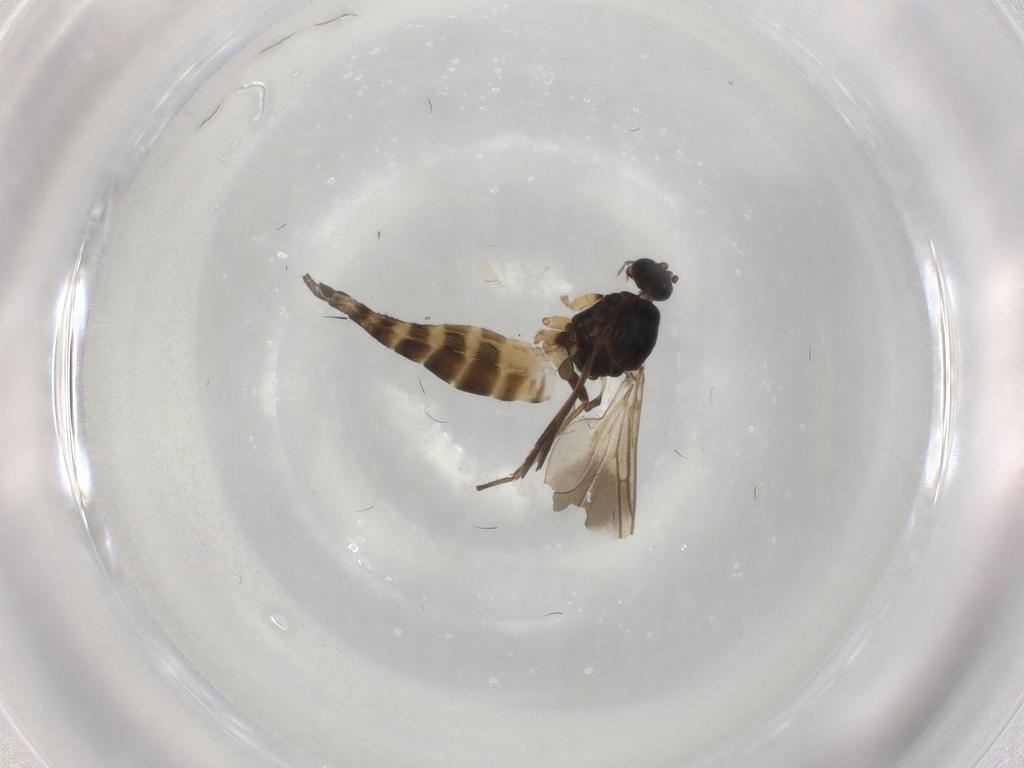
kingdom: Animalia
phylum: Arthropoda
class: Insecta
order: Diptera
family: Sciaridae
